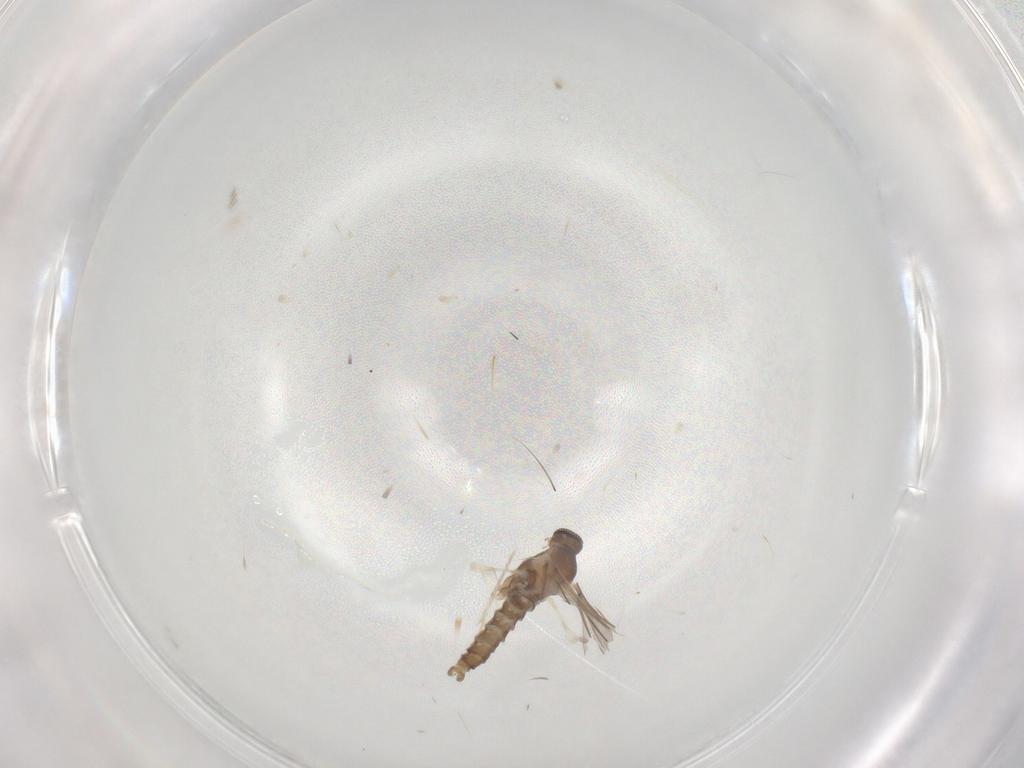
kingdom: Animalia
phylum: Arthropoda
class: Insecta
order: Diptera
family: Cecidomyiidae
